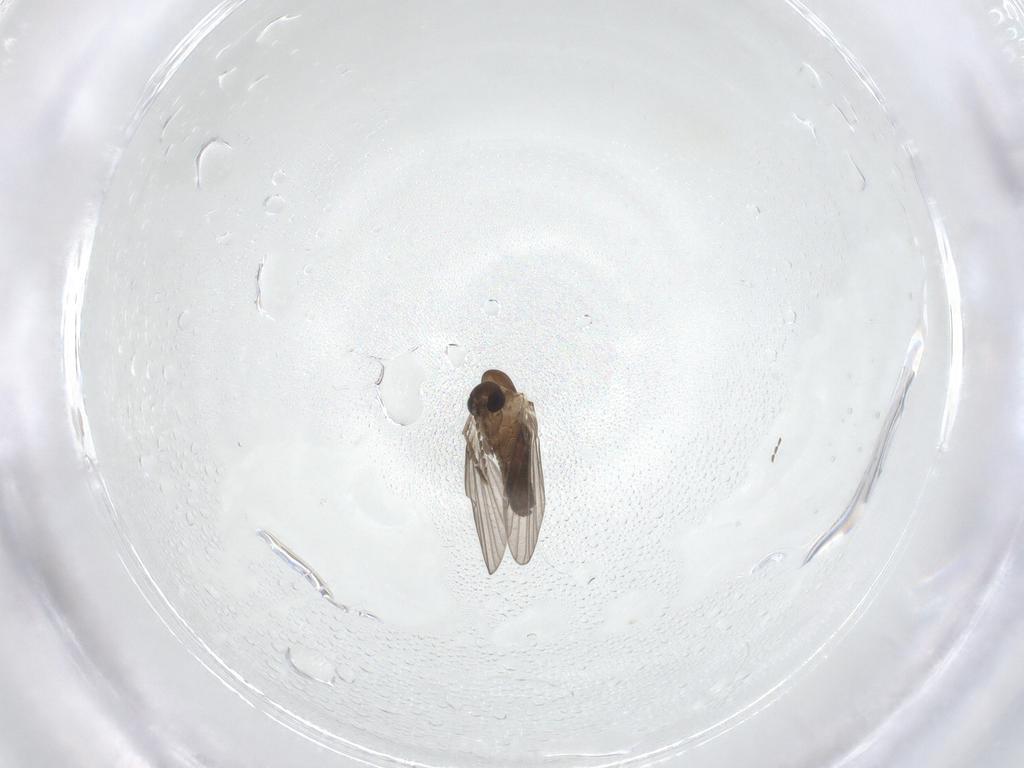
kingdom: Animalia
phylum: Arthropoda
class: Insecta
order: Diptera
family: Psychodidae
